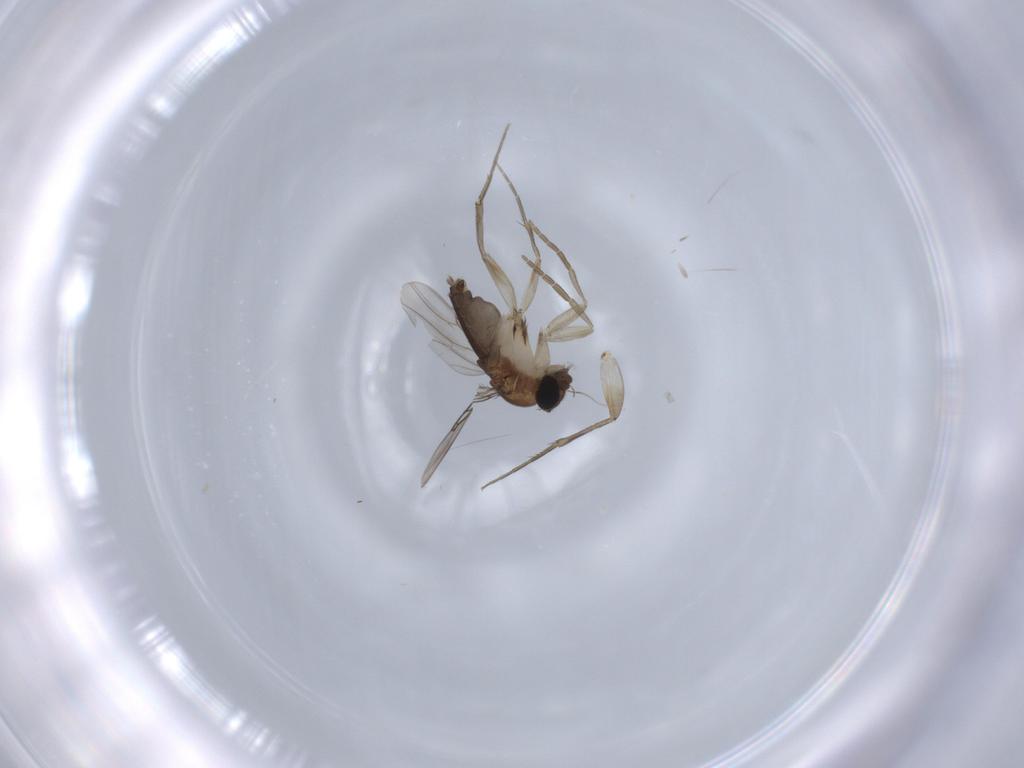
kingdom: Animalia
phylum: Arthropoda
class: Insecta
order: Diptera
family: Phoridae
